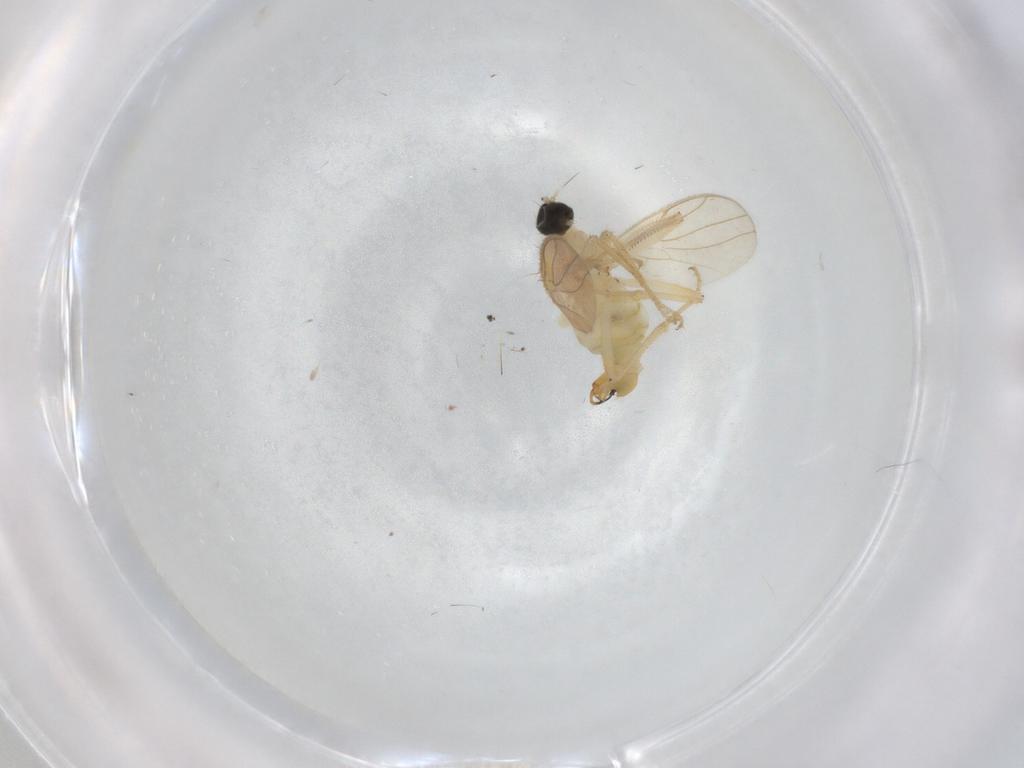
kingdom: Animalia
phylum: Arthropoda
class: Insecta
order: Diptera
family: Hybotidae
